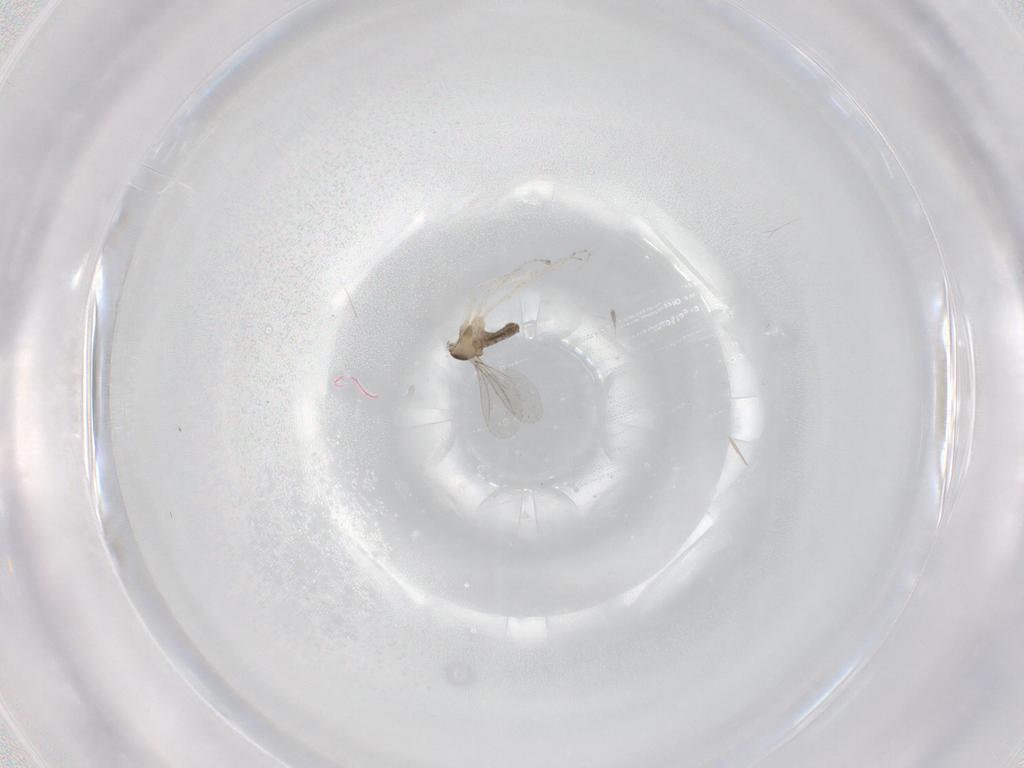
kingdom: Animalia
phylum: Arthropoda
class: Insecta
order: Diptera
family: Cecidomyiidae
